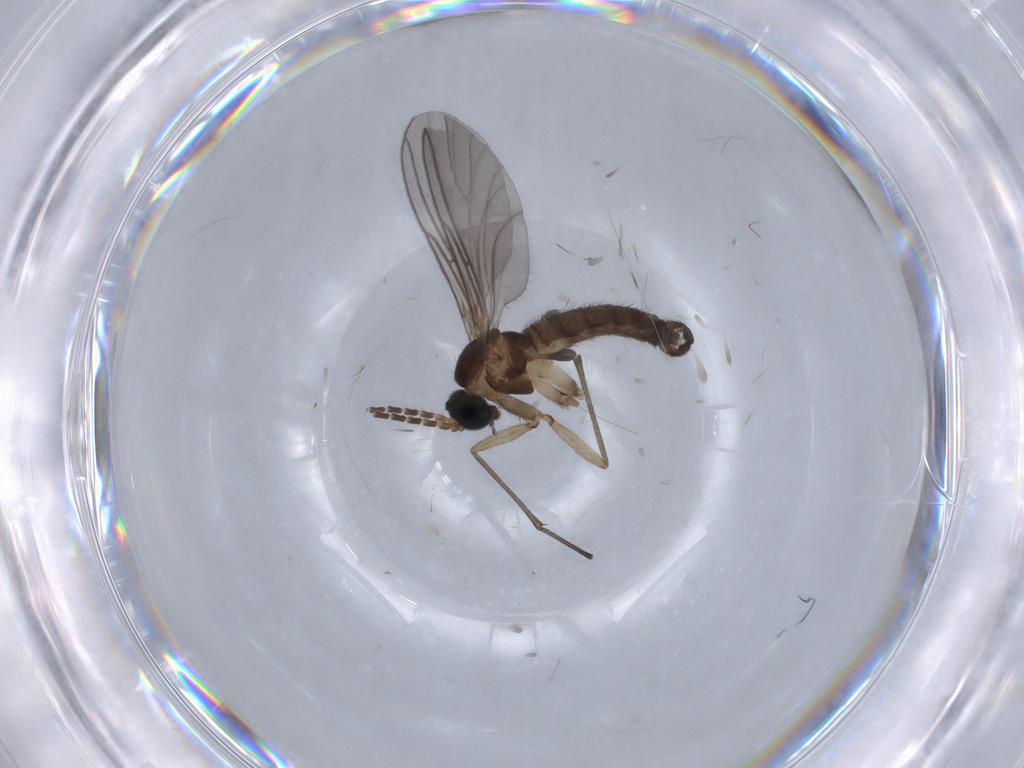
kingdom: Animalia
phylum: Arthropoda
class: Insecta
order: Diptera
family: Sciaridae
